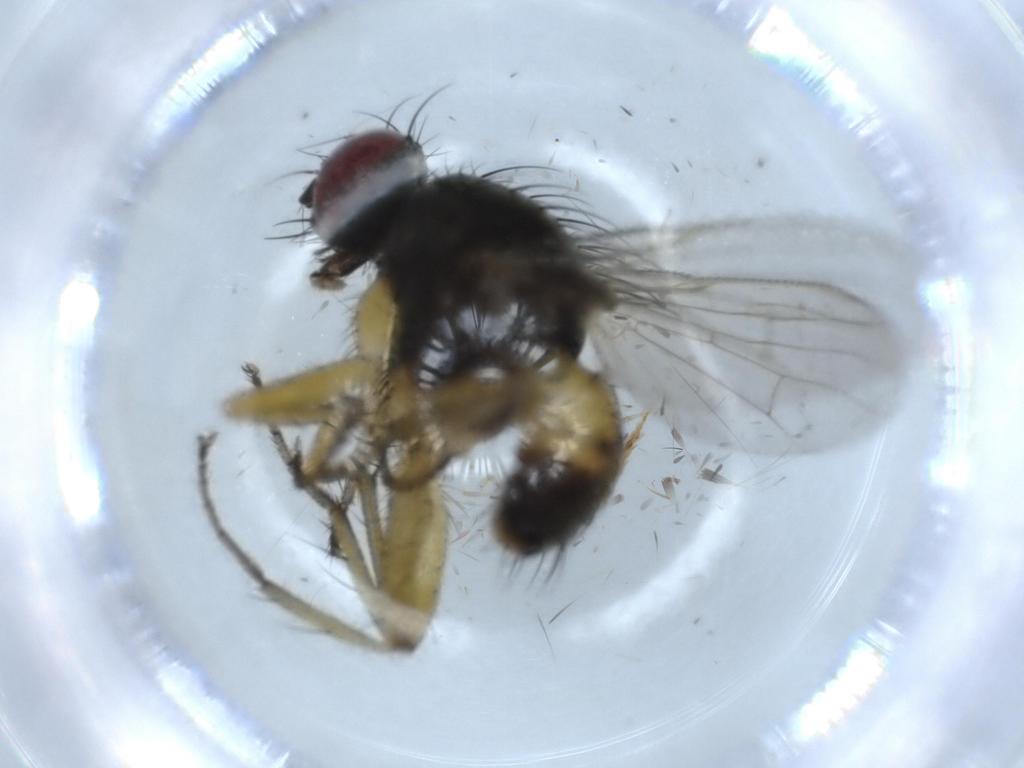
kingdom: Animalia
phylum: Arthropoda
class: Insecta
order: Diptera
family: Muscidae
